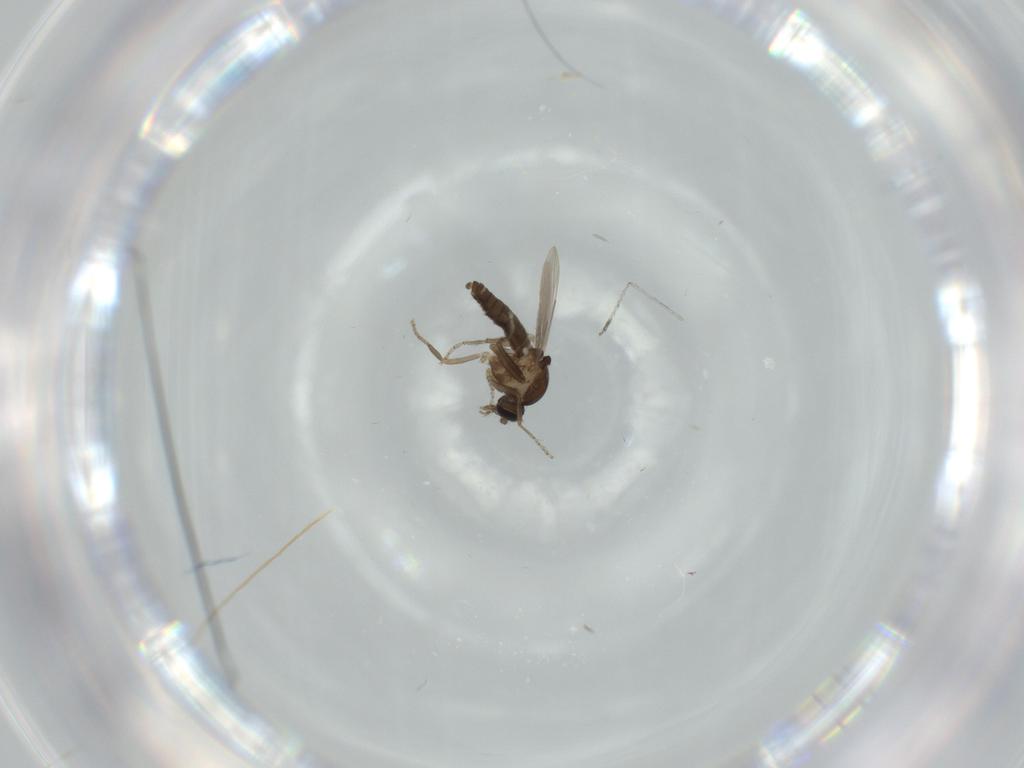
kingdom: Animalia
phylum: Arthropoda
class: Insecta
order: Diptera
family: Ceratopogonidae
